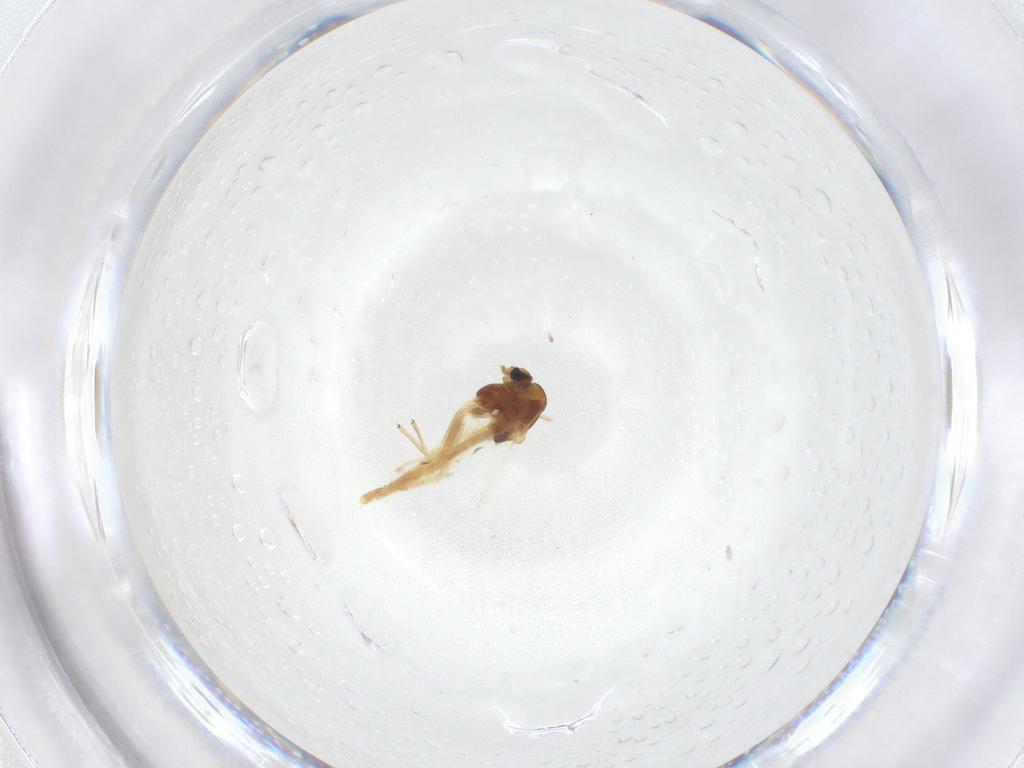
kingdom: Animalia
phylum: Arthropoda
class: Insecta
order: Diptera
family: Chironomidae
